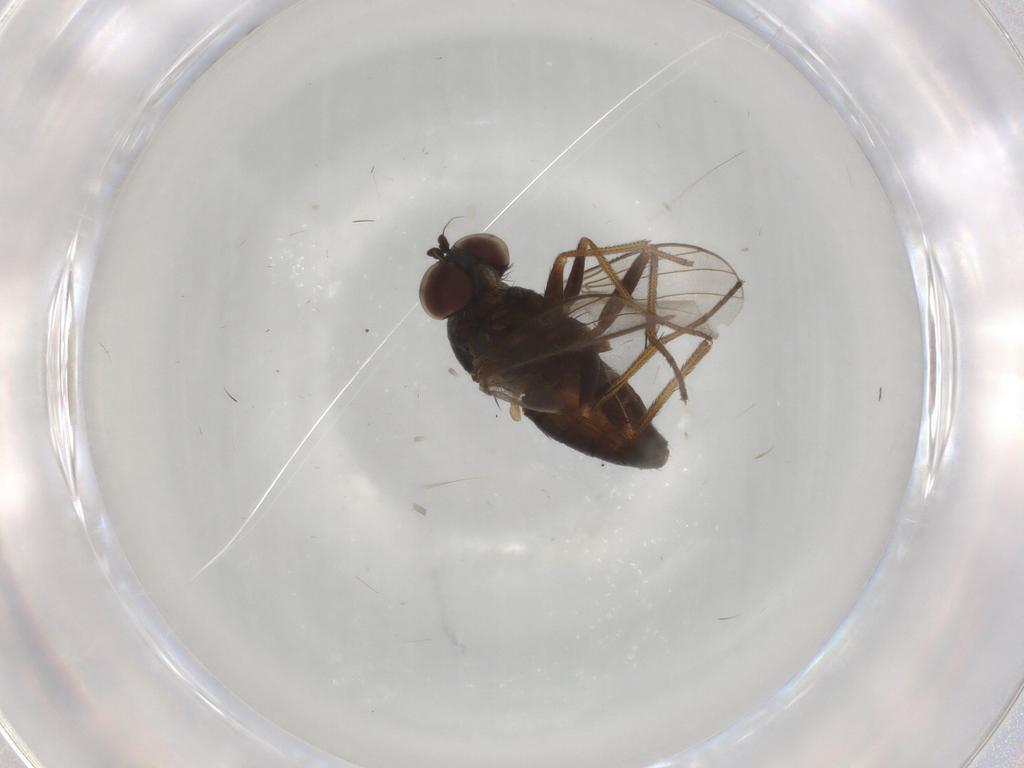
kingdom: Animalia
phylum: Arthropoda
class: Insecta
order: Diptera
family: Dolichopodidae
